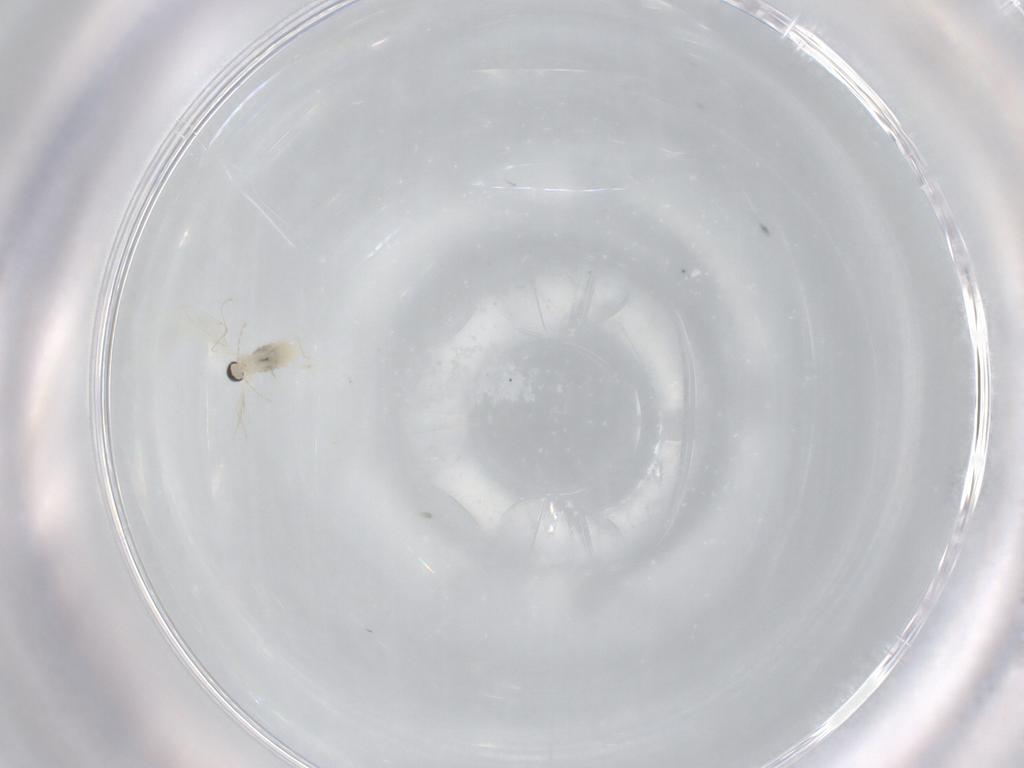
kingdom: Animalia
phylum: Arthropoda
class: Insecta
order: Diptera
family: Cecidomyiidae
